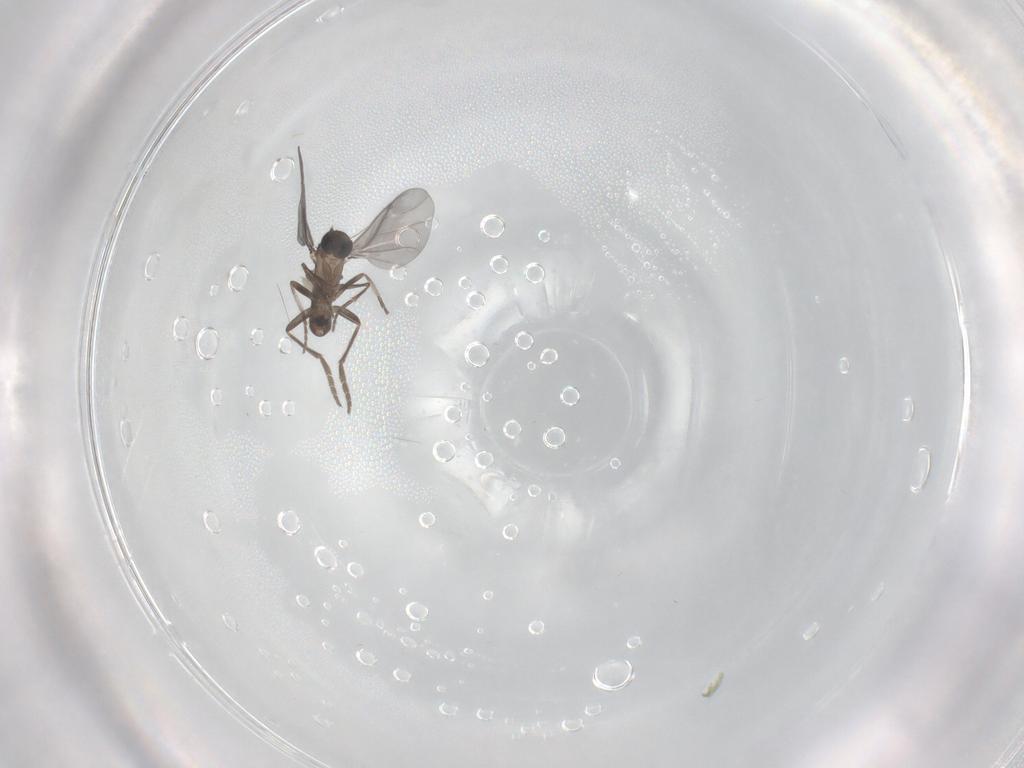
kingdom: Animalia
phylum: Arthropoda
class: Insecta
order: Diptera
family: Phoridae
